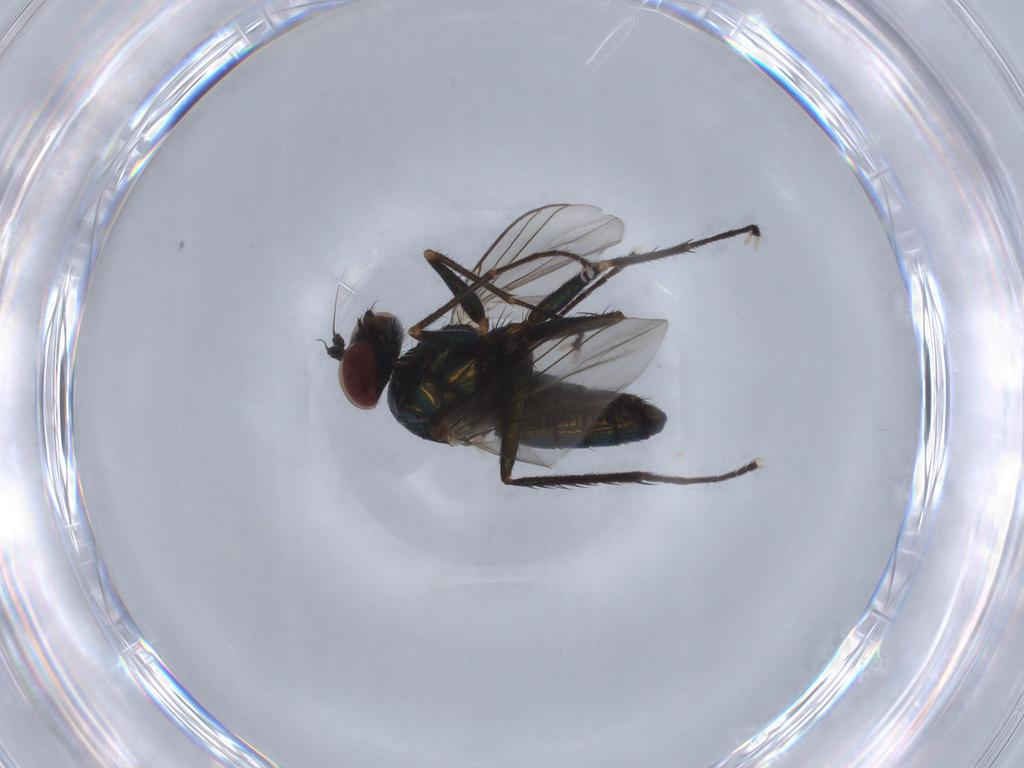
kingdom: Animalia
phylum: Arthropoda
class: Insecta
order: Diptera
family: Dolichopodidae
